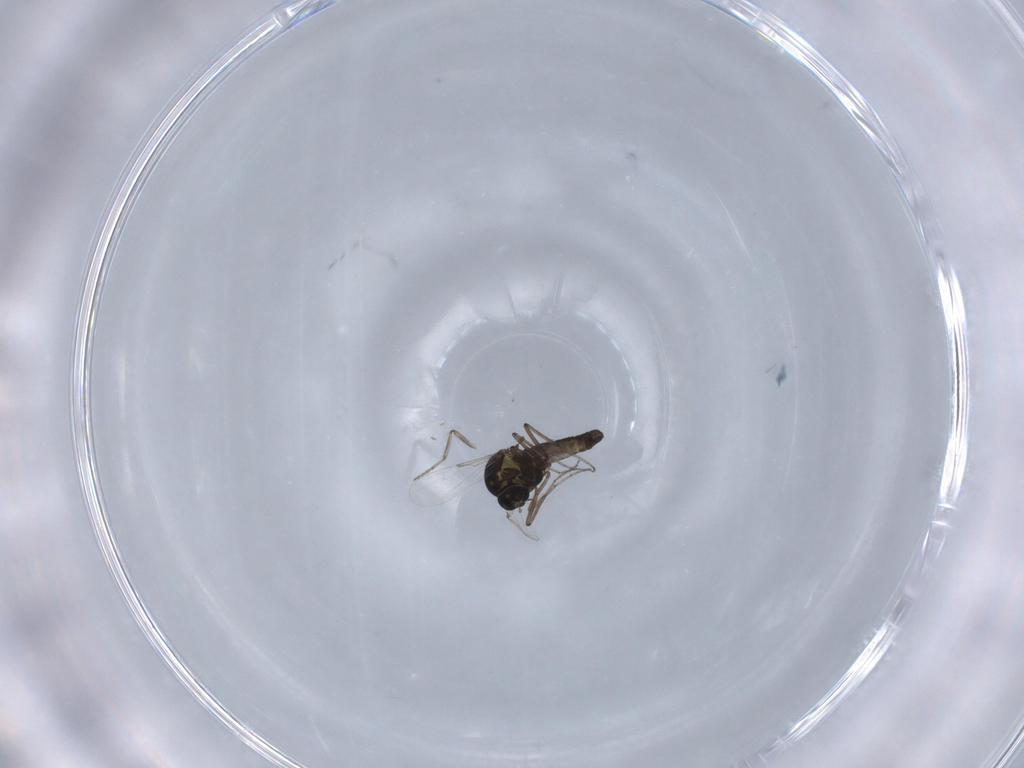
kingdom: Animalia
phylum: Arthropoda
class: Insecta
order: Diptera
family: Ceratopogonidae
